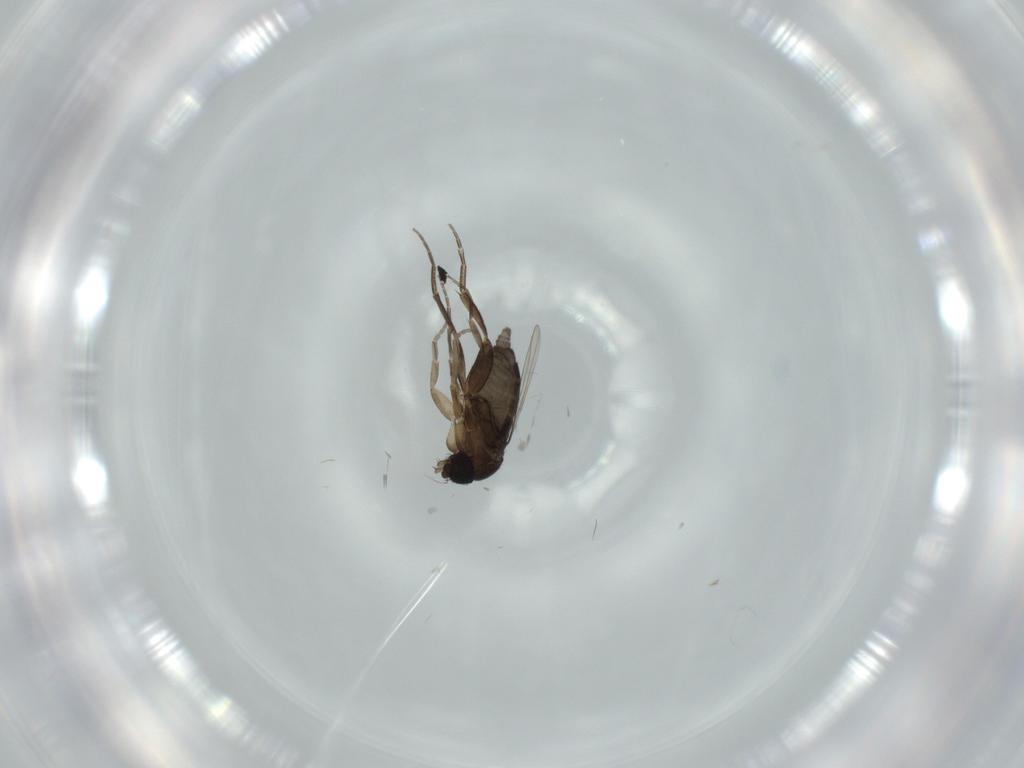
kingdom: Animalia
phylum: Arthropoda
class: Insecta
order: Diptera
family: Phoridae
